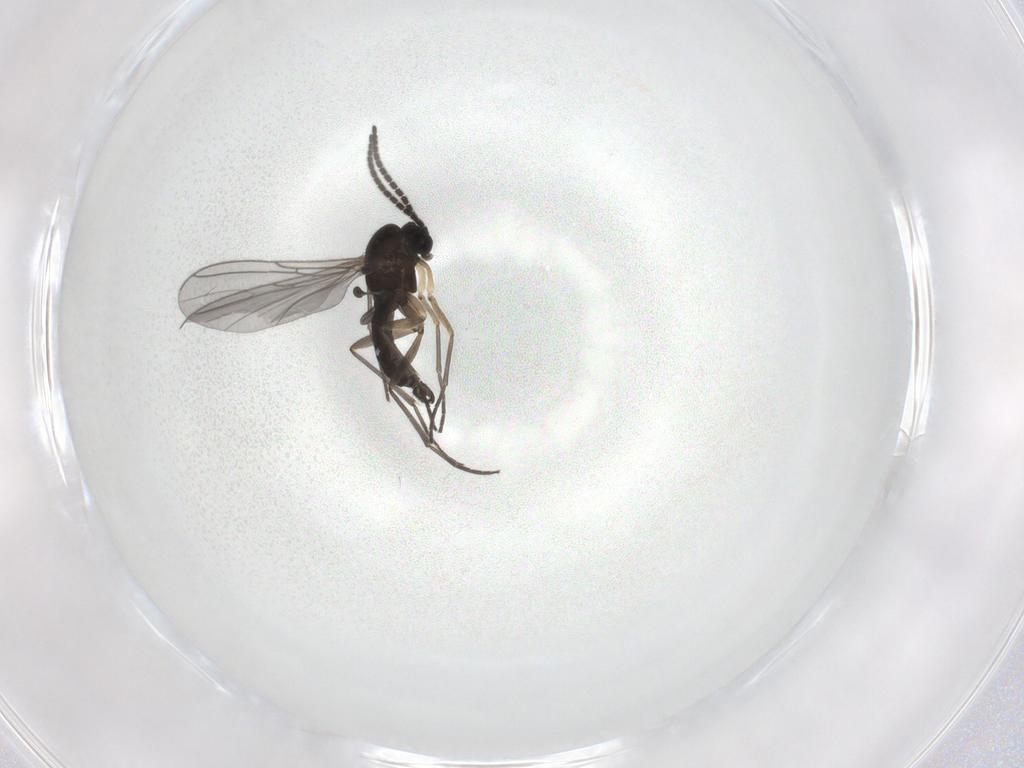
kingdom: Animalia
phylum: Arthropoda
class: Insecta
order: Diptera
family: Sciaridae
